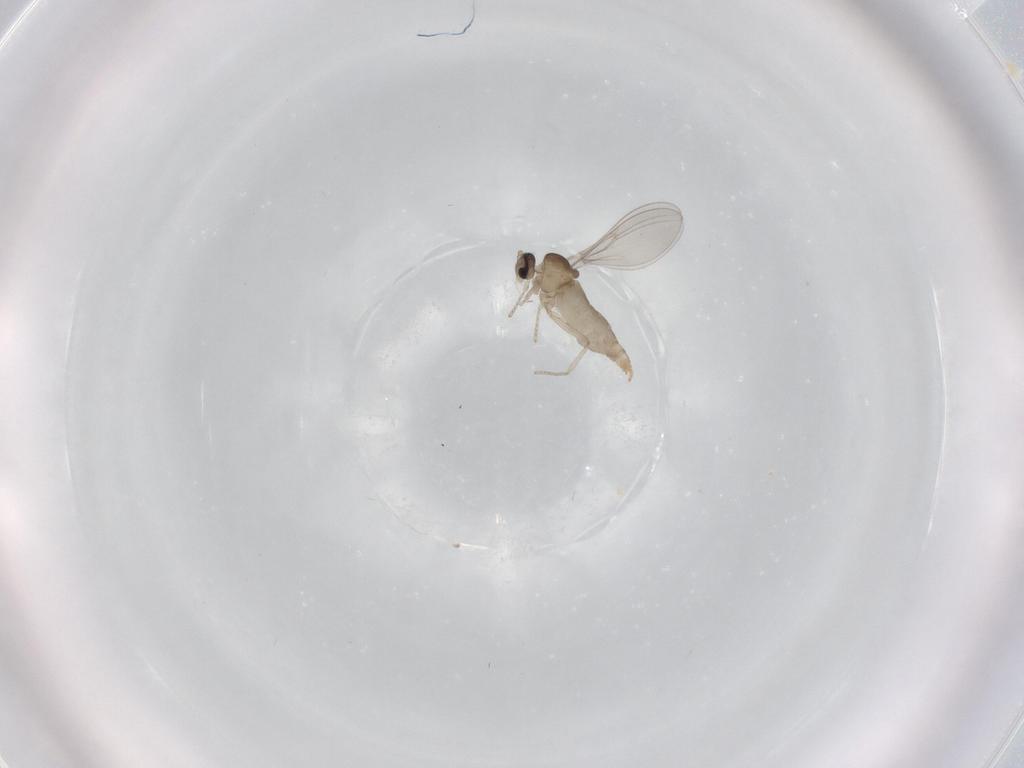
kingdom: Animalia
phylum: Arthropoda
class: Insecta
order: Diptera
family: Cecidomyiidae
